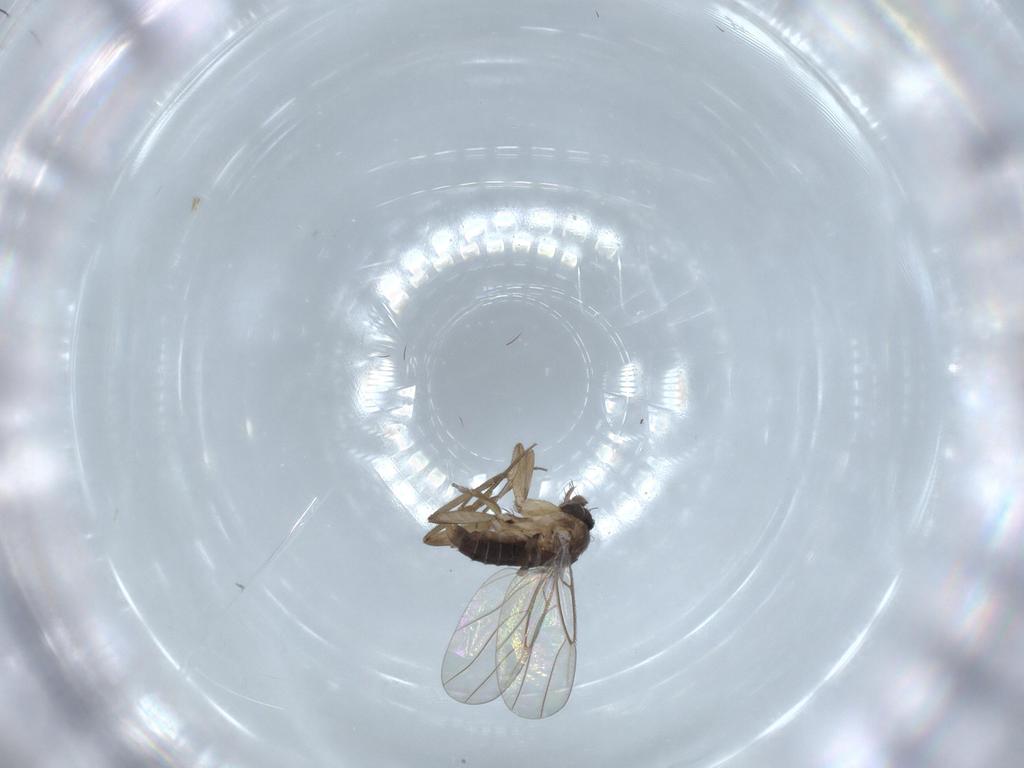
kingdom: Animalia
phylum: Arthropoda
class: Insecta
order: Diptera
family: Phoridae
